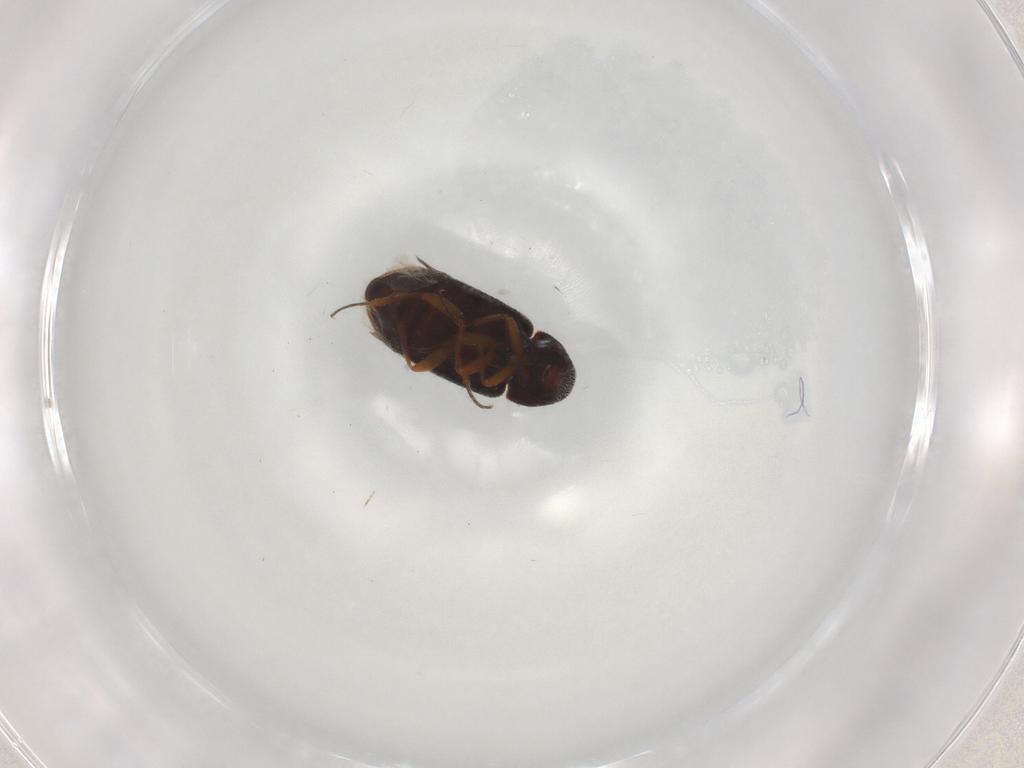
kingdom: Animalia
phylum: Arthropoda
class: Insecta
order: Coleoptera
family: Rhadalidae
